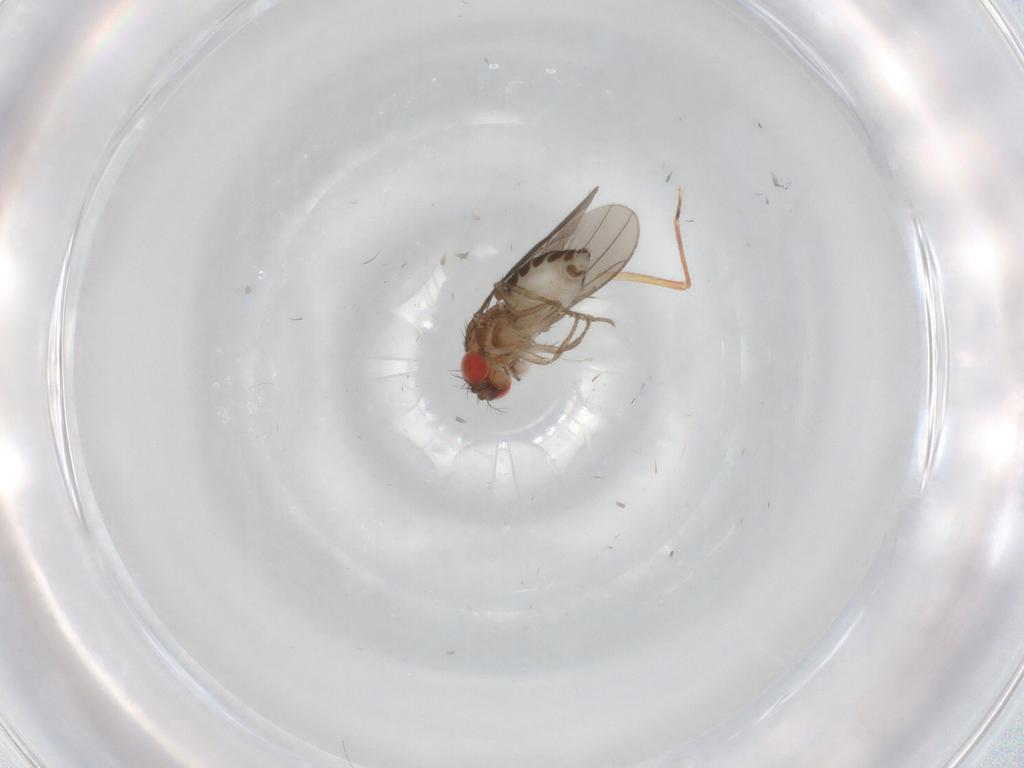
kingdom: Animalia
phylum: Arthropoda
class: Insecta
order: Diptera
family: Drosophilidae
